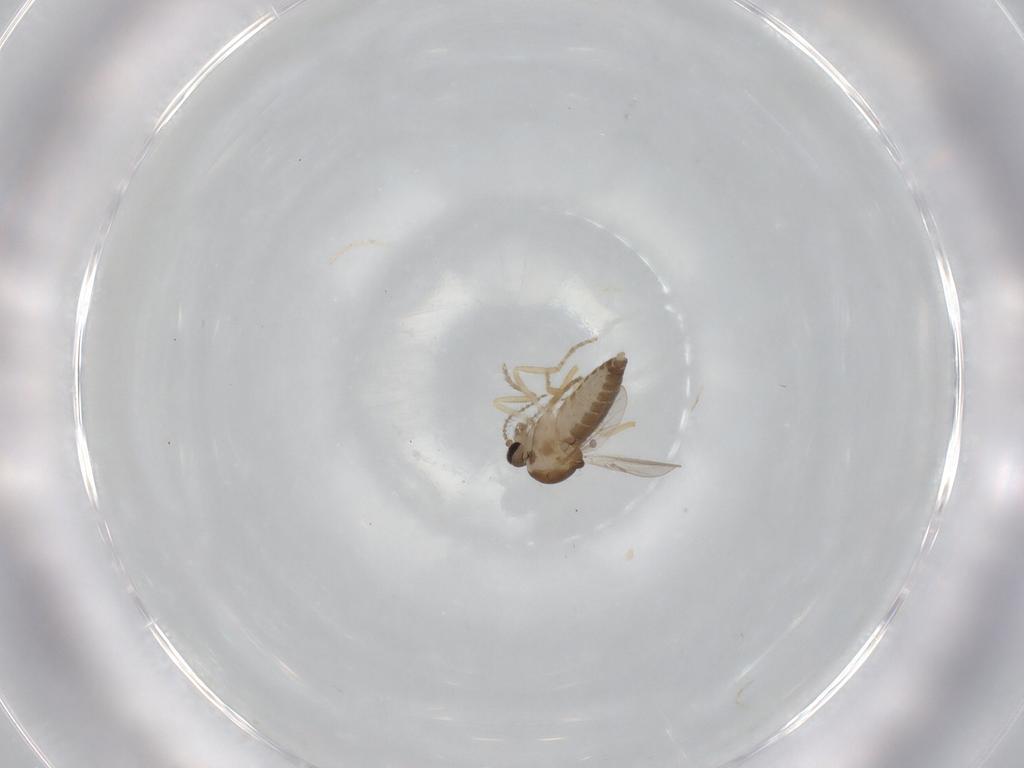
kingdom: Animalia
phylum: Arthropoda
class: Insecta
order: Diptera
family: Ceratopogonidae
